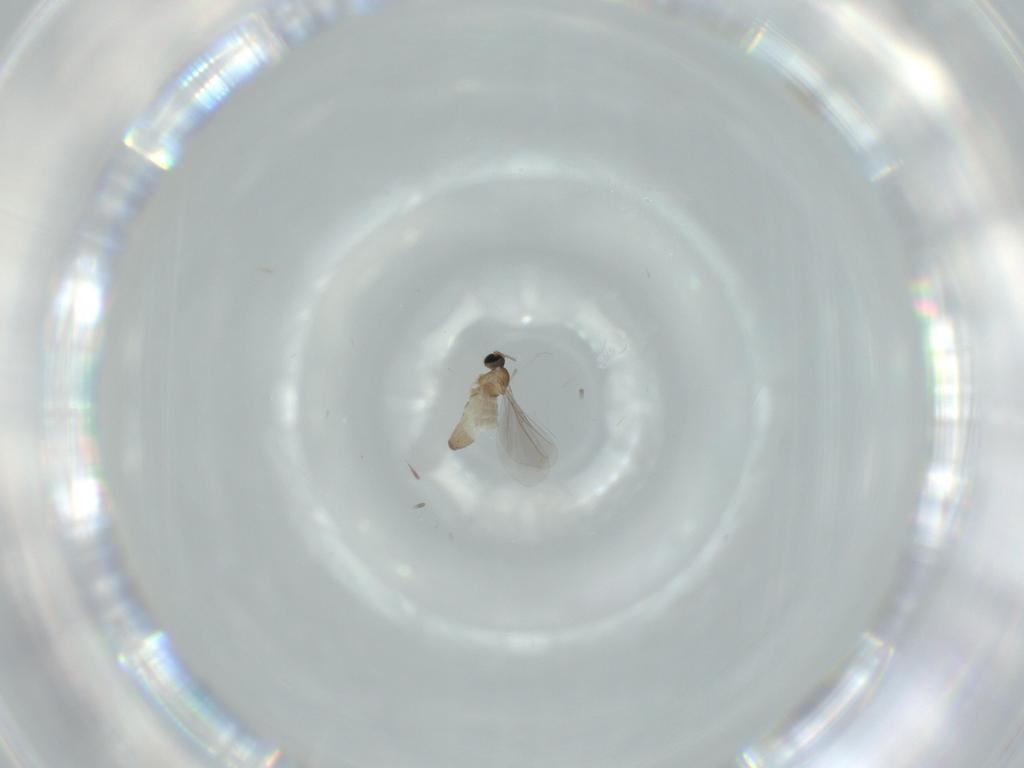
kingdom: Animalia
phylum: Arthropoda
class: Insecta
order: Diptera
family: Cecidomyiidae
